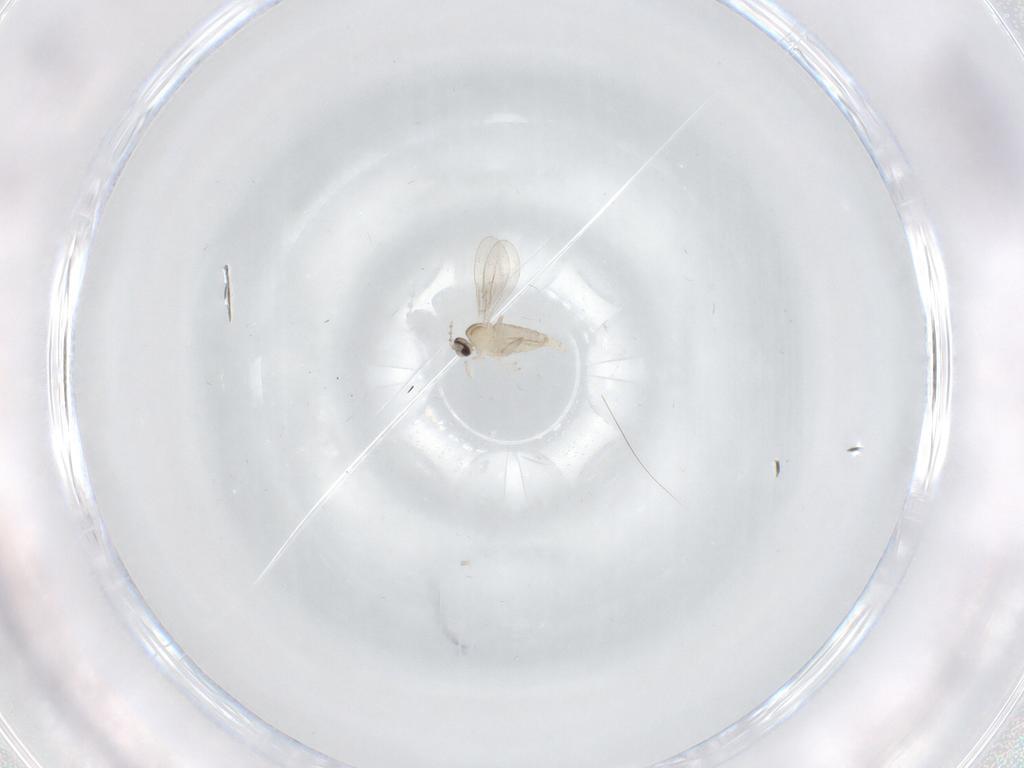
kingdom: Animalia
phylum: Arthropoda
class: Insecta
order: Diptera
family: Cecidomyiidae
